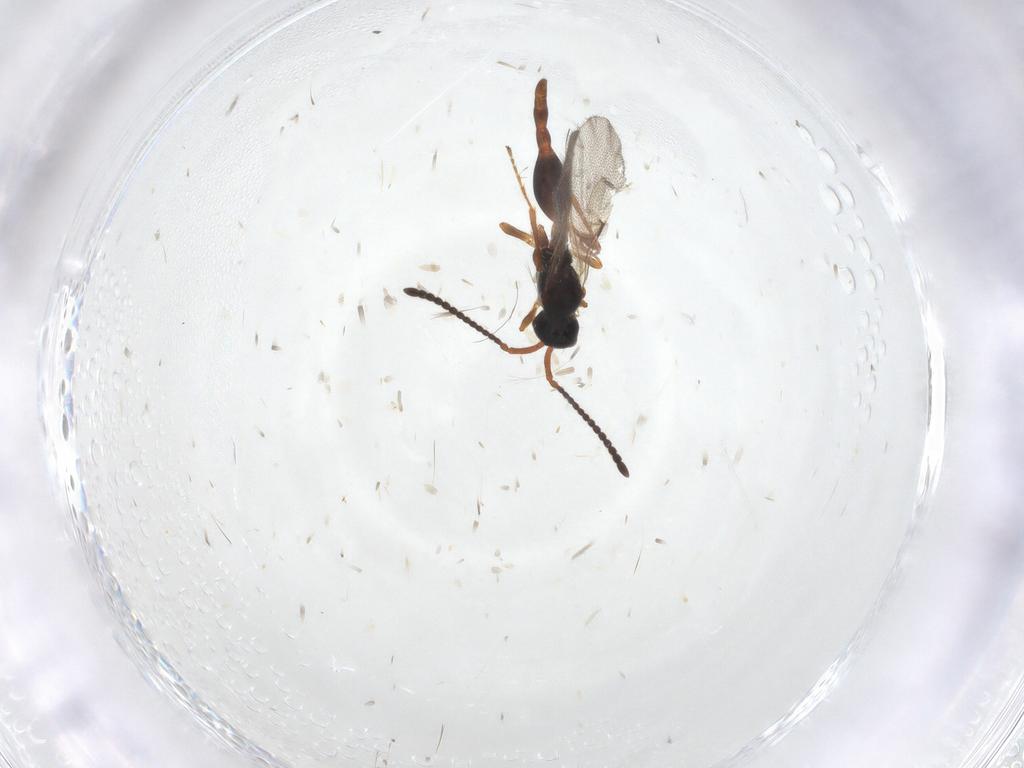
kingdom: Animalia
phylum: Arthropoda
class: Insecta
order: Hymenoptera
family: Diapriidae
